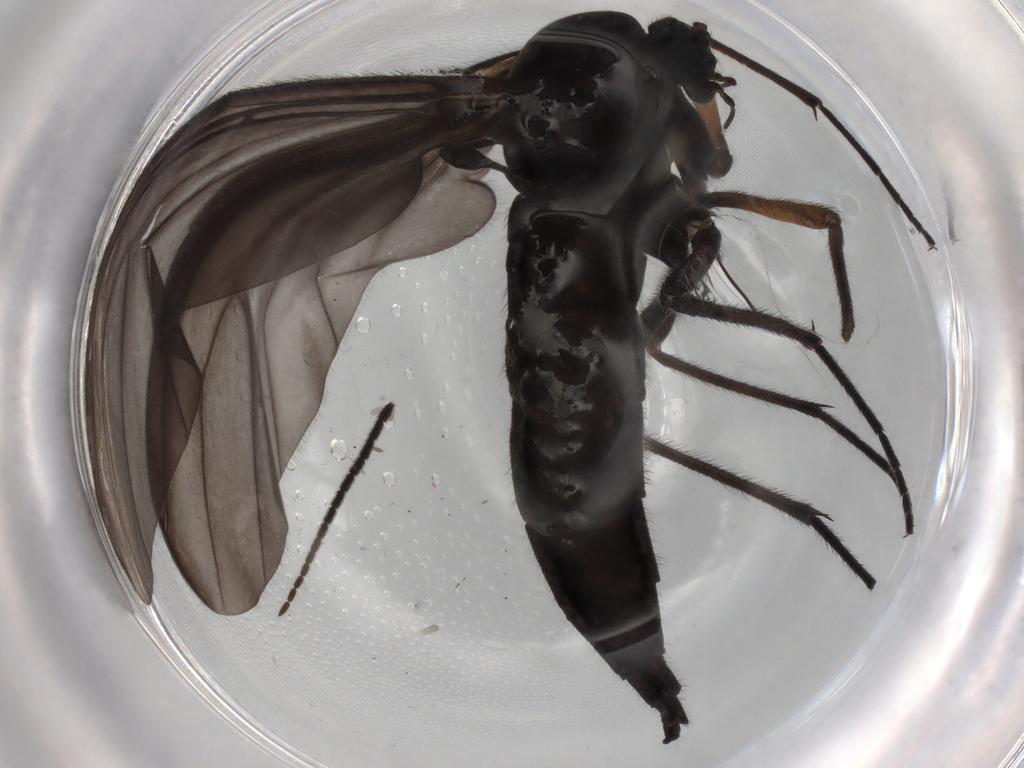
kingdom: Animalia
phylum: Arthropoda
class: Insecta
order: Diptera
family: Sciaridae
